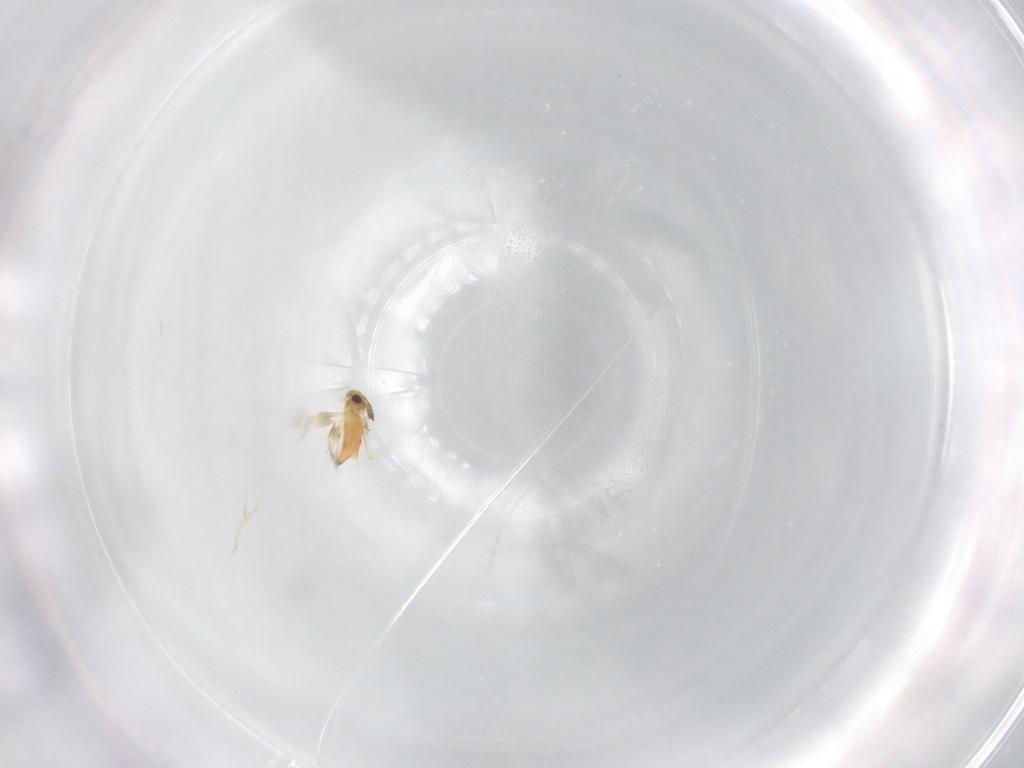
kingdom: Animalia
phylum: Arthropoda
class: Insecta
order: Hymenoptera
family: Signiphoridae
